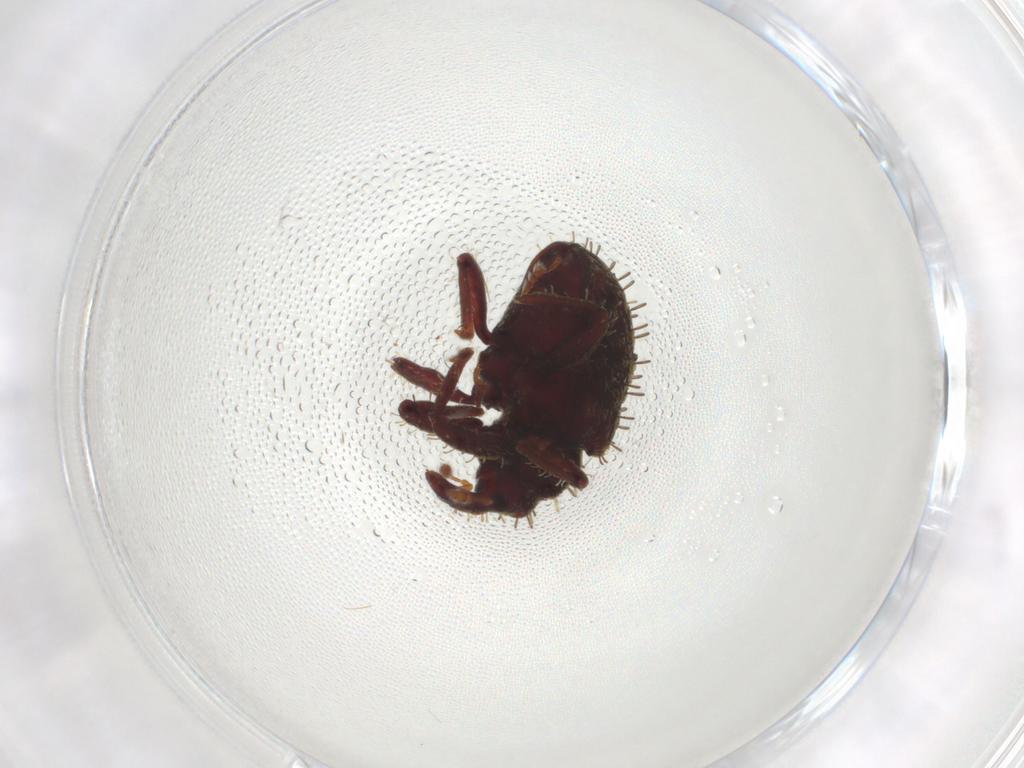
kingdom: Animalia
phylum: Arthropoda
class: Insecta
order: Coleoptera
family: Curculionidae
